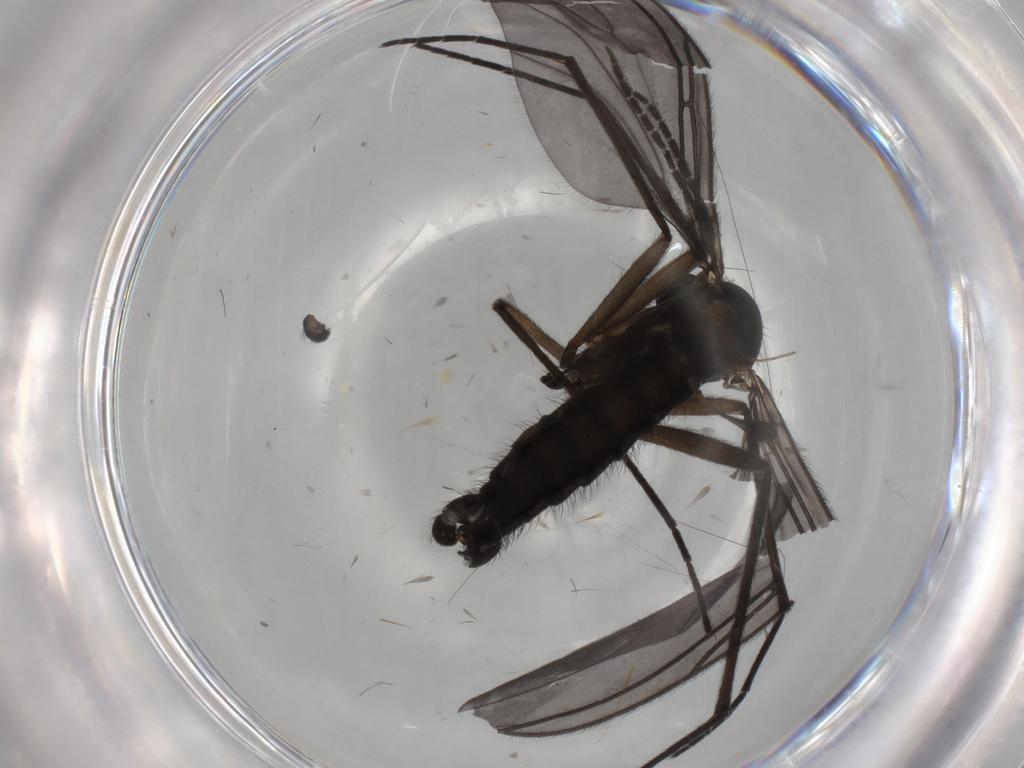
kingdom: Animalia
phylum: Arthropoda
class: Insecta
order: Diptera
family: Sciaridae
